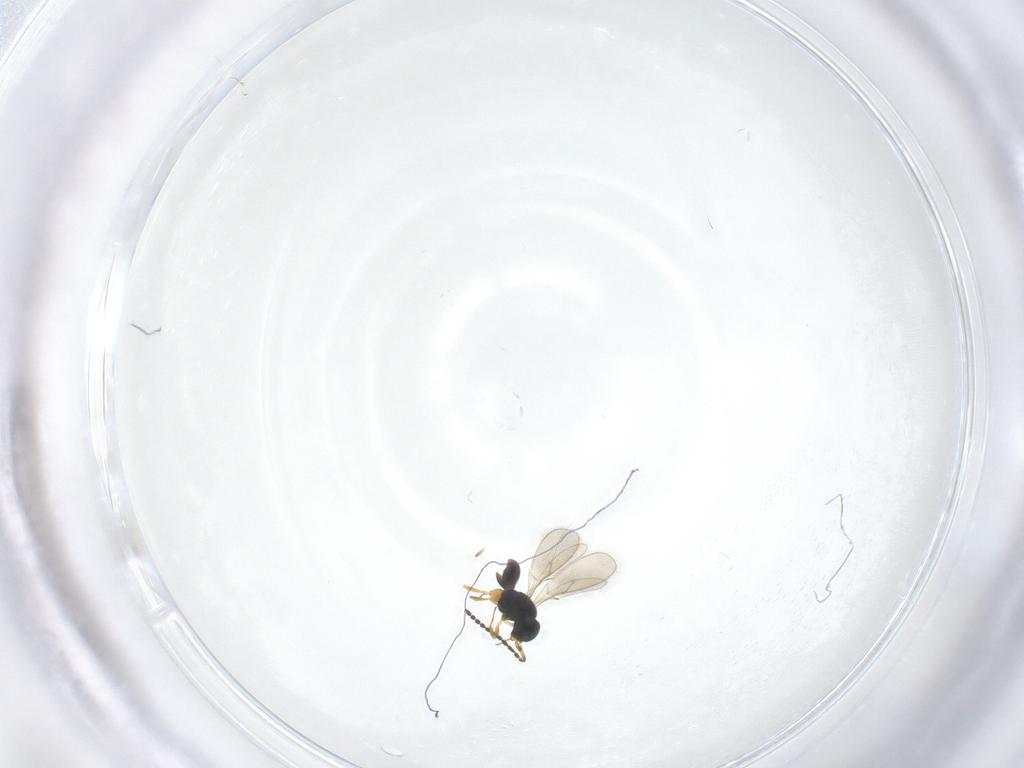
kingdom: Animalia
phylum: Arthropoda
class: Insecta
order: Hymenoptera
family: Scelionidae
